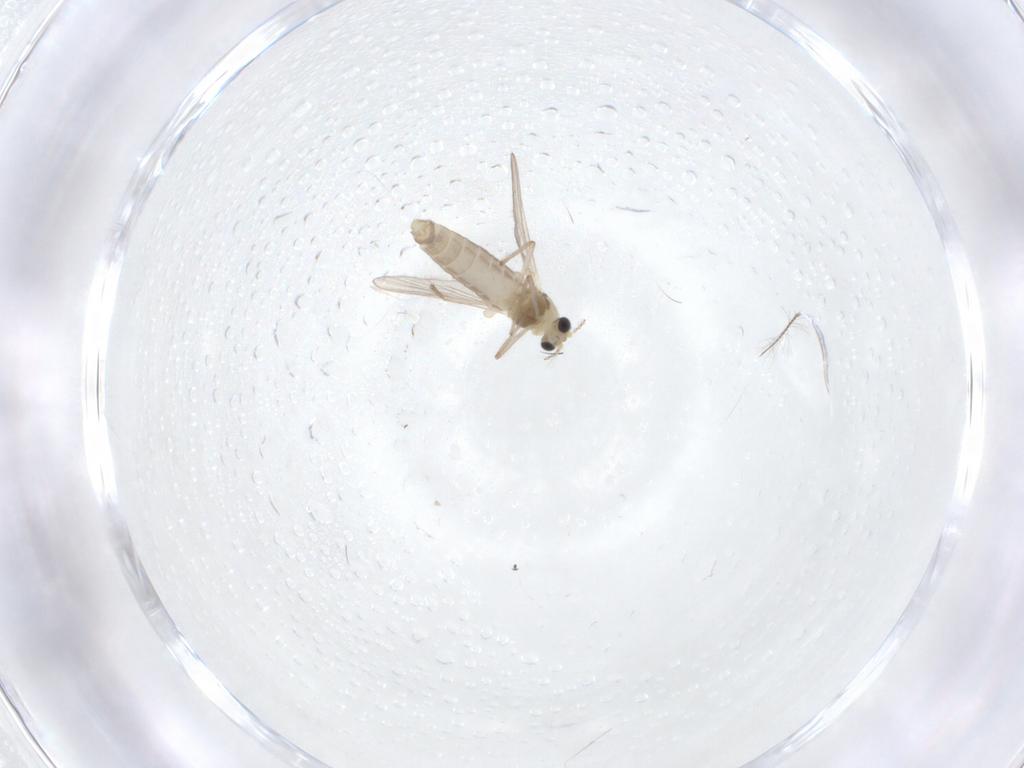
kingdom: Animalia
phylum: Arthropoda
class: Insecta
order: Diptera
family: Chironomidae
